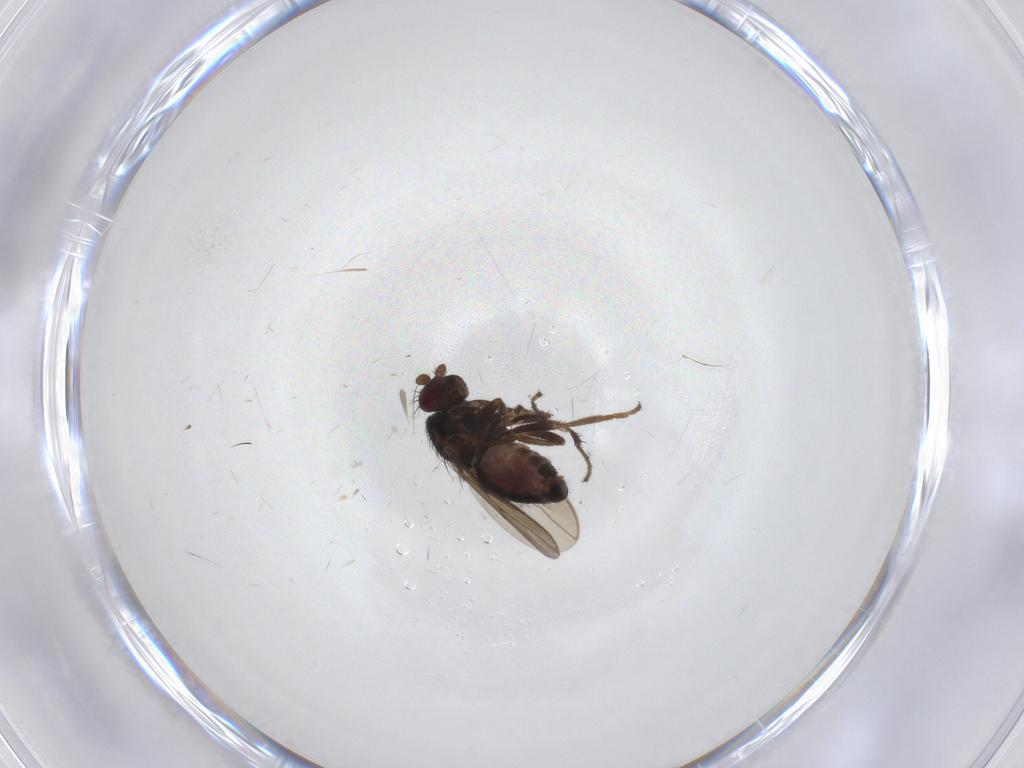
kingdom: Animalia
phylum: Arthropoda
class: Insecta
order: Diptera
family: Sphaeroceridae
